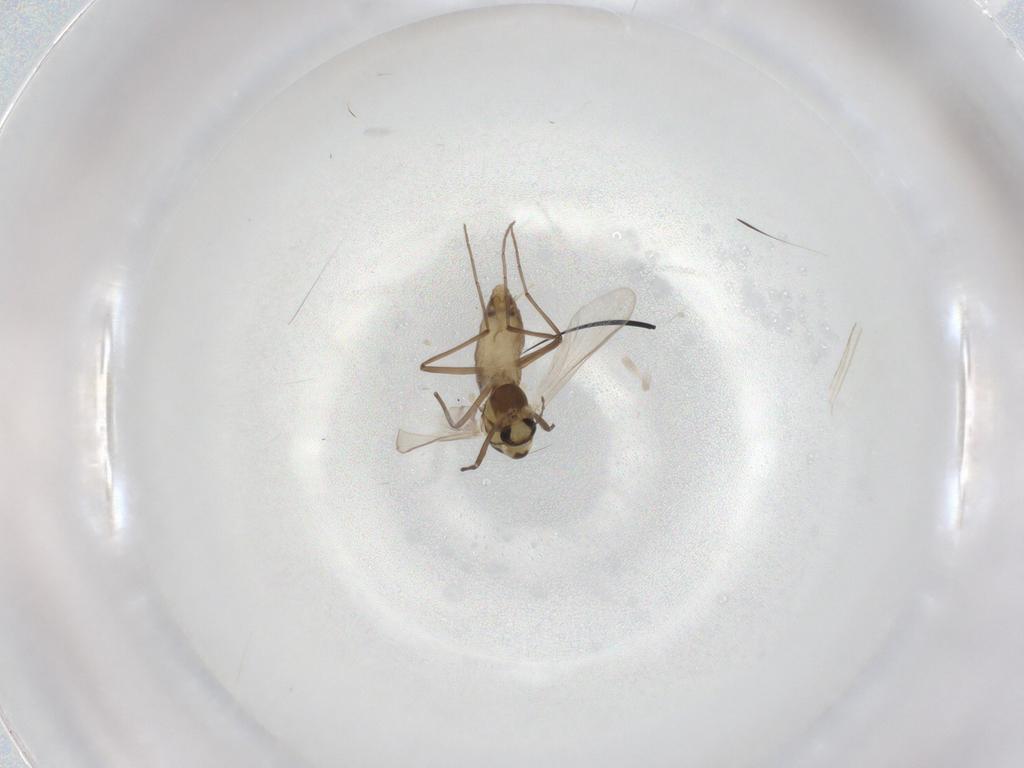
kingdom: Animalia
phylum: Arthropoda
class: Insecta
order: Diptera
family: Chironomidae
